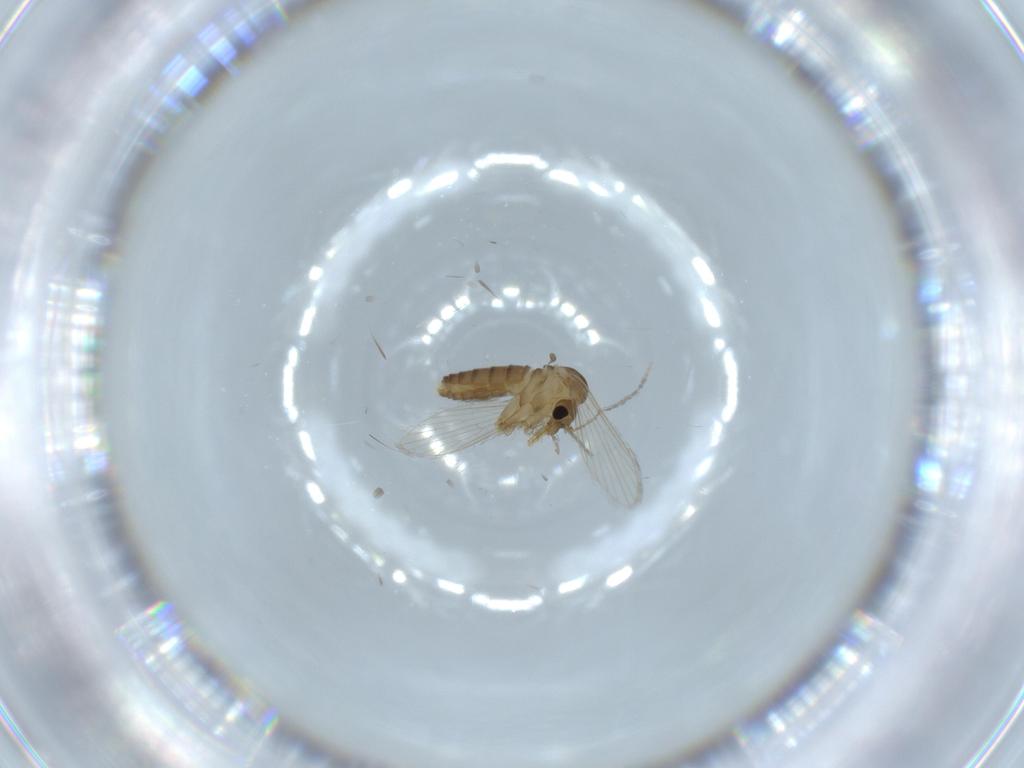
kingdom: Animalia
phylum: Arthropoda
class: Insecta
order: Diptera
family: Psychodidae
